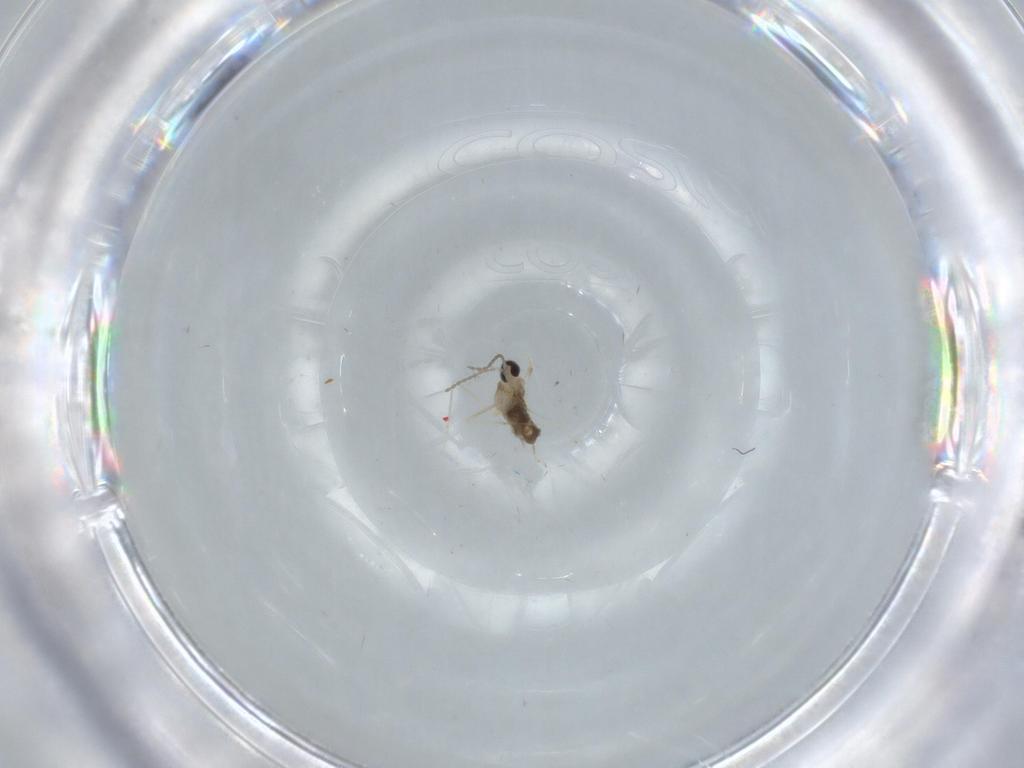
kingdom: Animalia
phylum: Arthropoda
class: Insecta
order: Diptera
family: Cecidomyiidae
